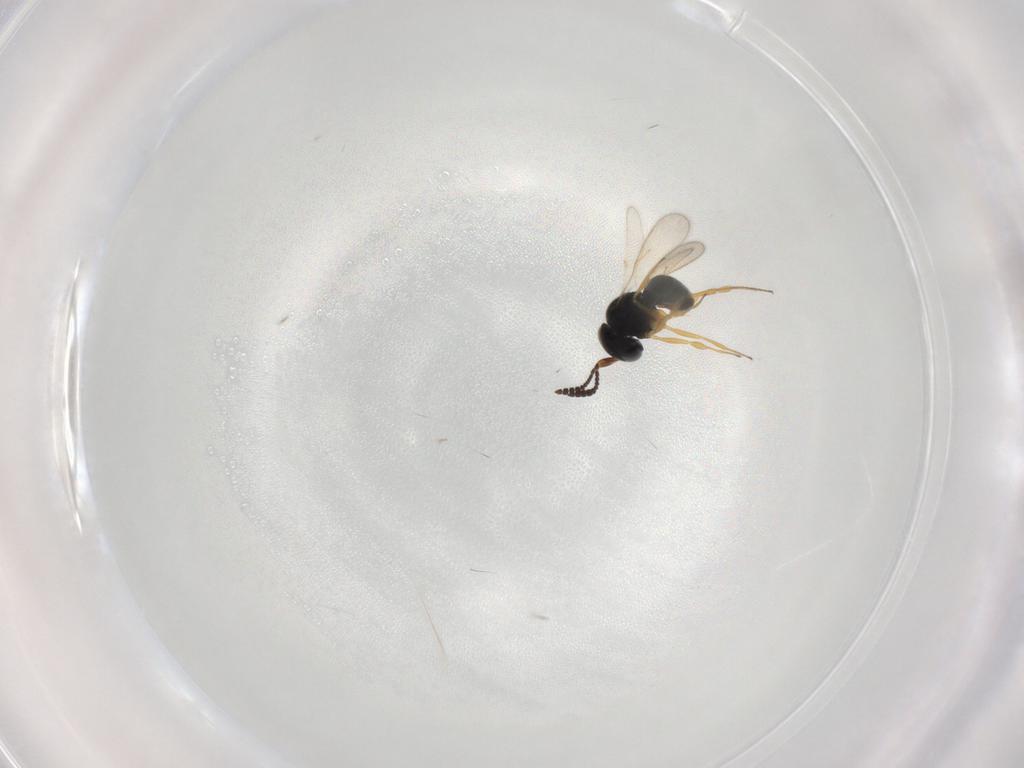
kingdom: Animalia
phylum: Arthropoda
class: Insecta
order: Hymenoptera
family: Scelionidae
